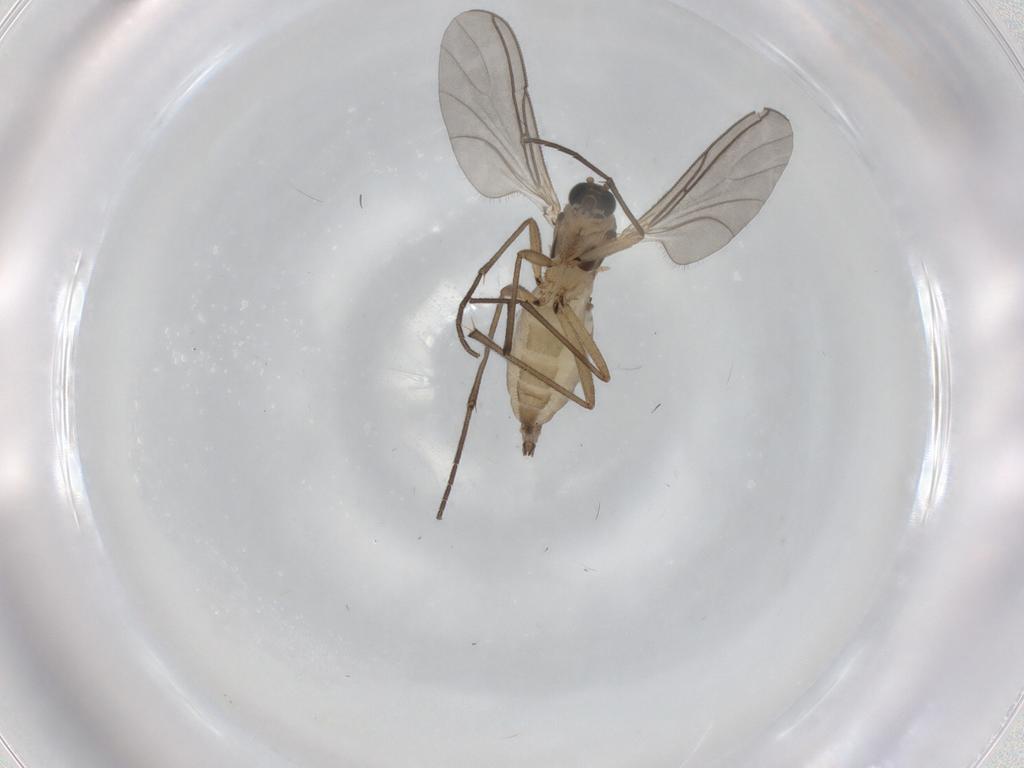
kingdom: Animalia
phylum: Arthropoda
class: Insecta
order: Diptera
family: Sciaridae
